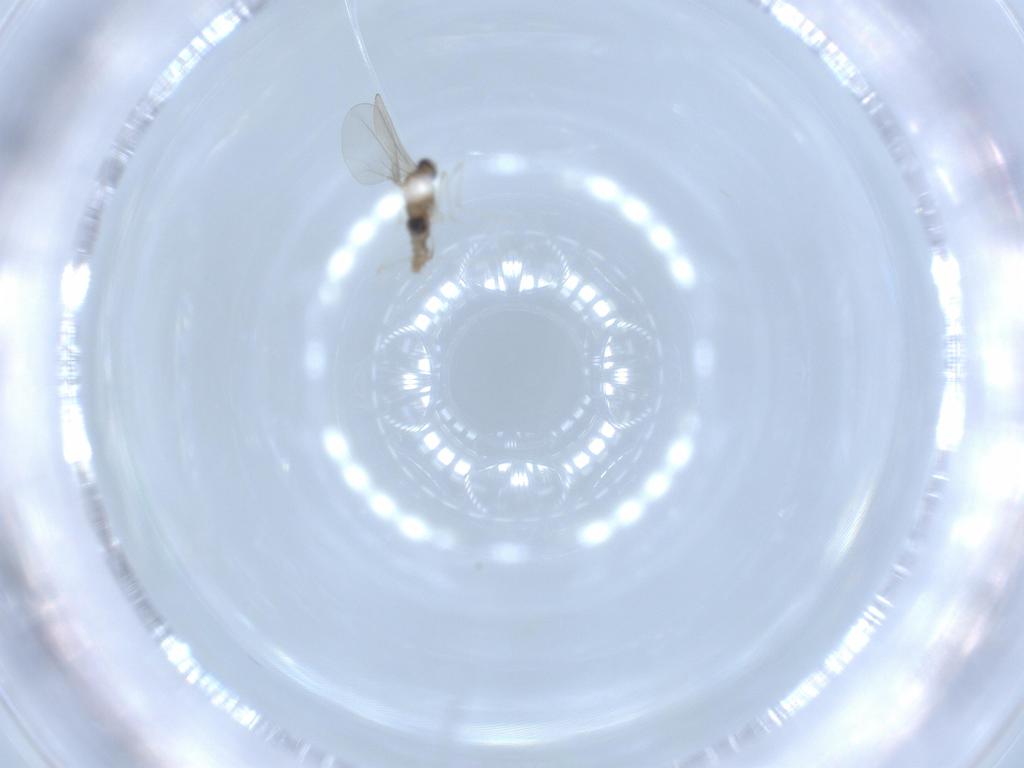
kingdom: Animalia
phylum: Arthropoda
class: Insecta
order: Diptera
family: Cecidomyiidae
